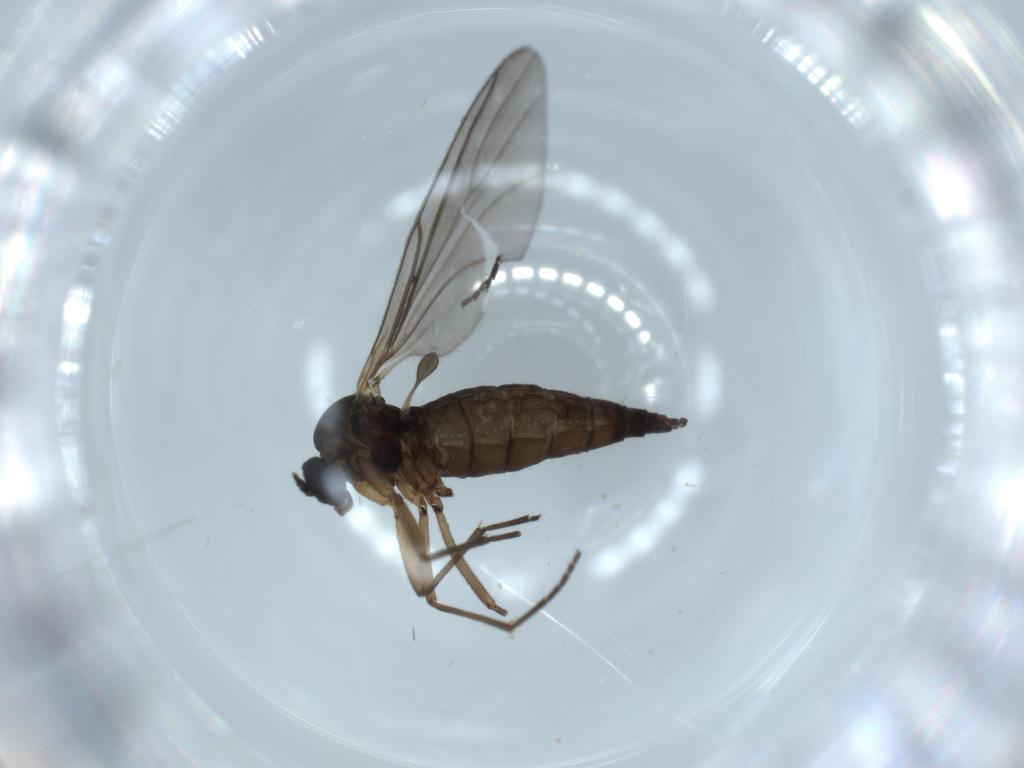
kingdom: Animalia
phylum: Arthropoda
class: Insecta
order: Diptera
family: Sciaridae
